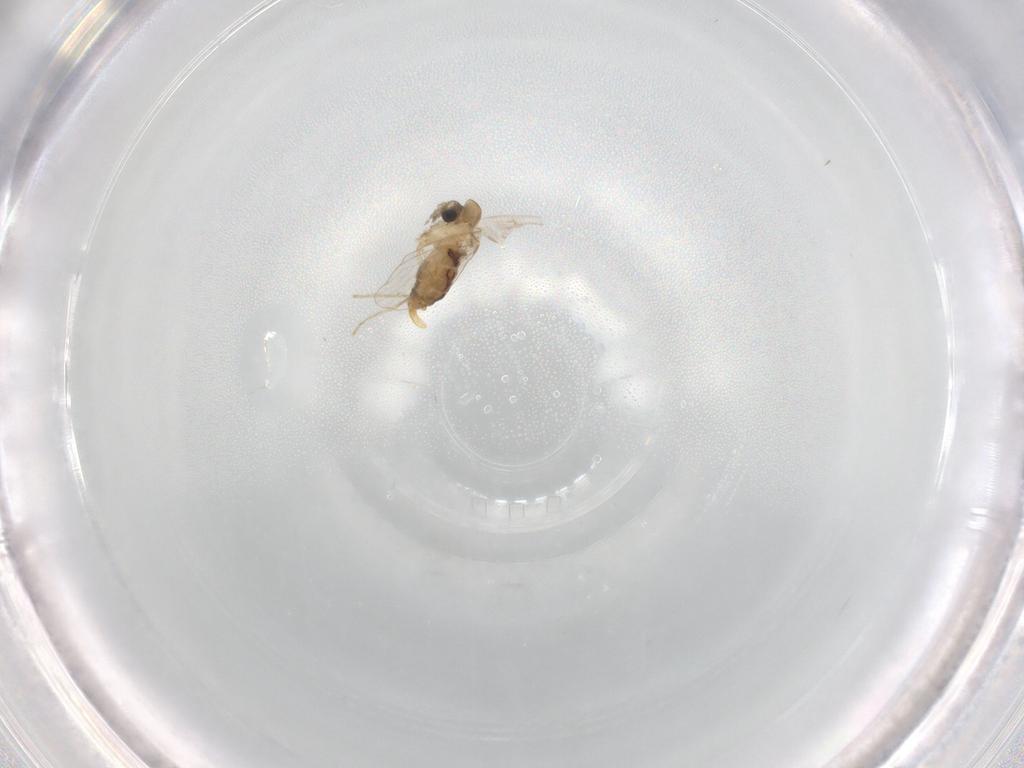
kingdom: Animalia
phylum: Arthropoda
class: Insecta
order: Diptera
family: Psychodidae
